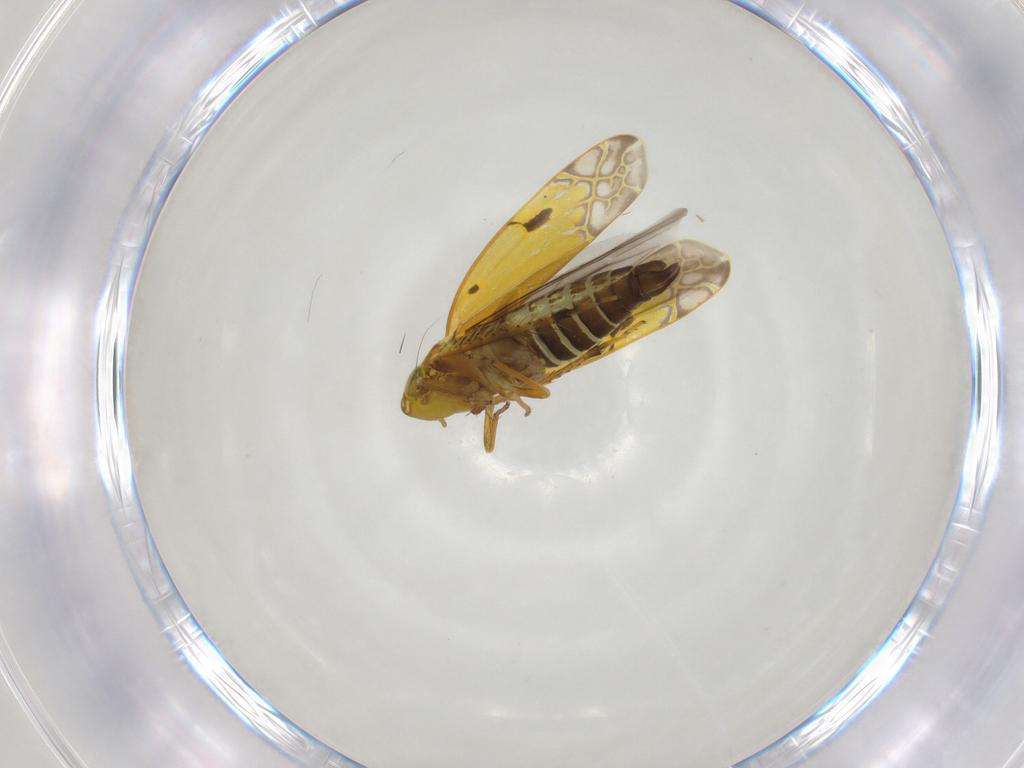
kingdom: Animalia
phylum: Arthropoda
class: Insecta
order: Hemiptera
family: Cicadellidae
